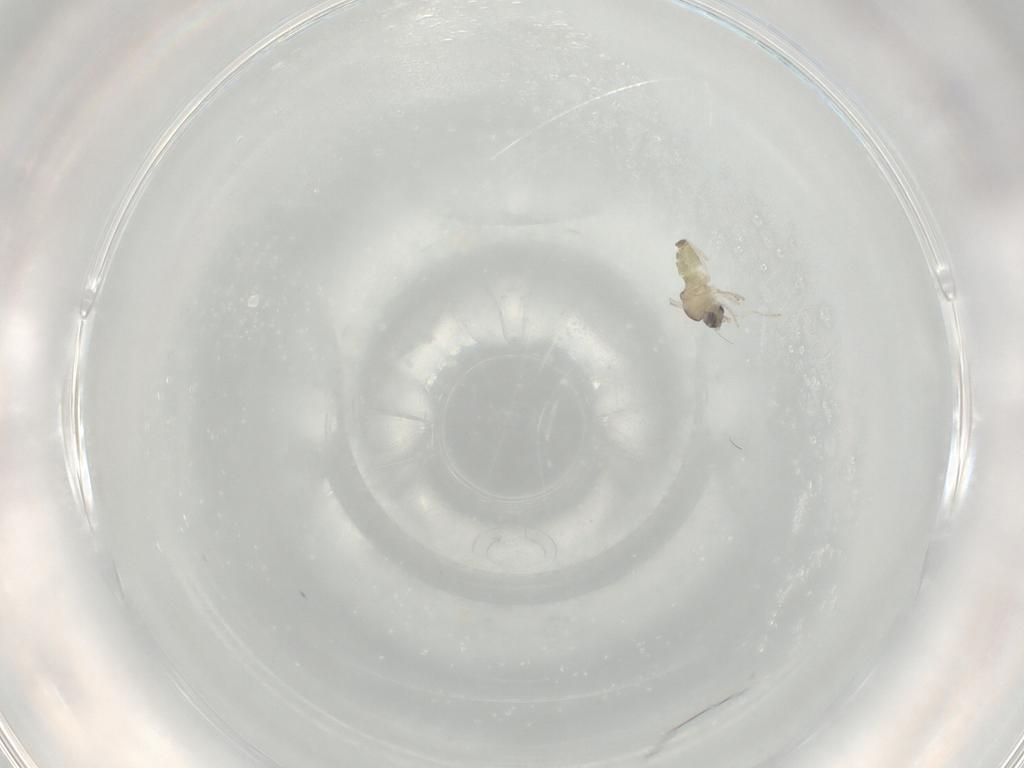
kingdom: Animalia
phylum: Arthropoda
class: Insecta
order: Diptera
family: Cecidomyiidae
